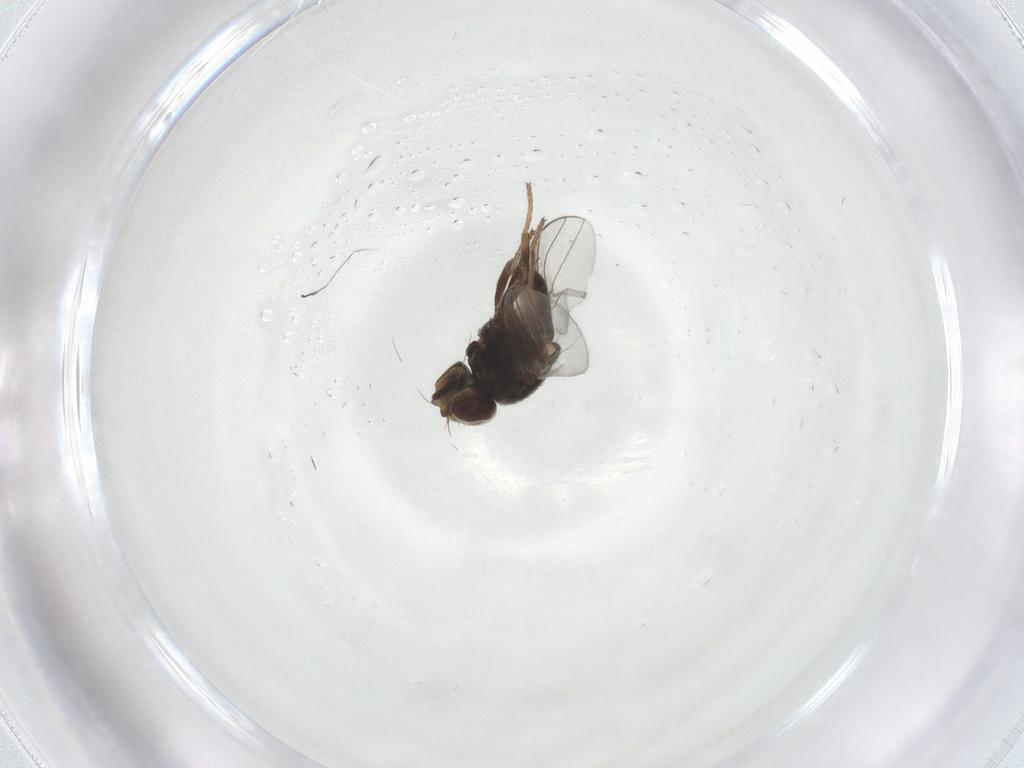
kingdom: Animalia
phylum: Arthropoda
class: Insecta
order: Diptera
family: Chloropidae
